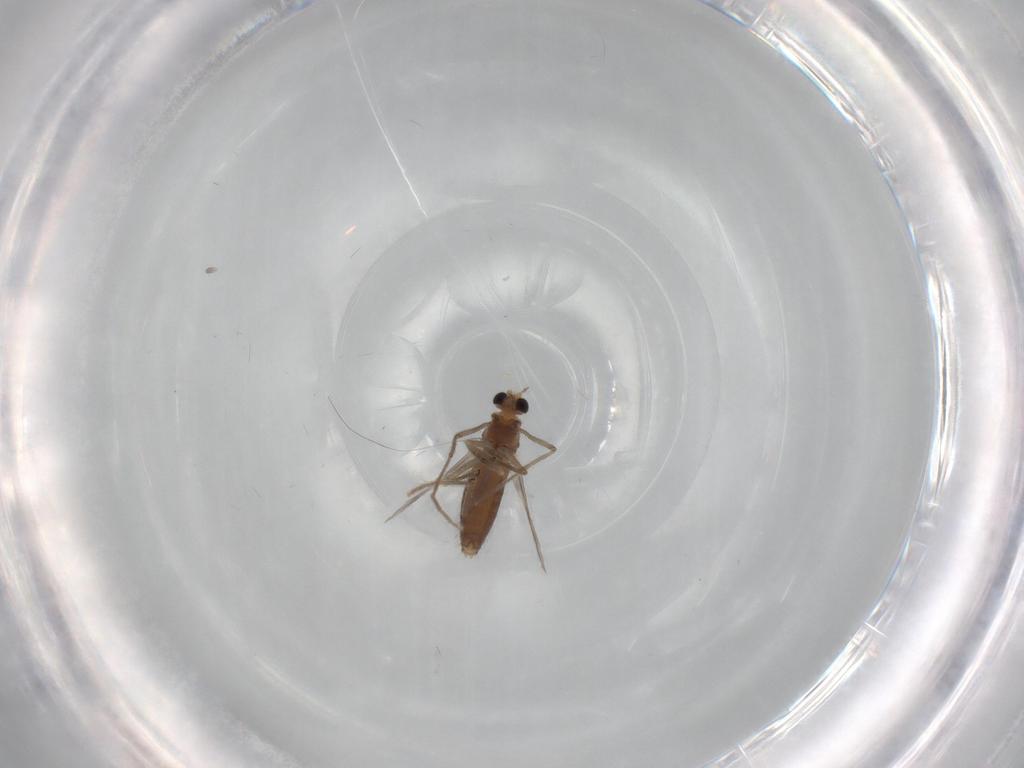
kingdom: Animalia
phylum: Arthropoda
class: Insecta
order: Diptera
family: Chironomidae
